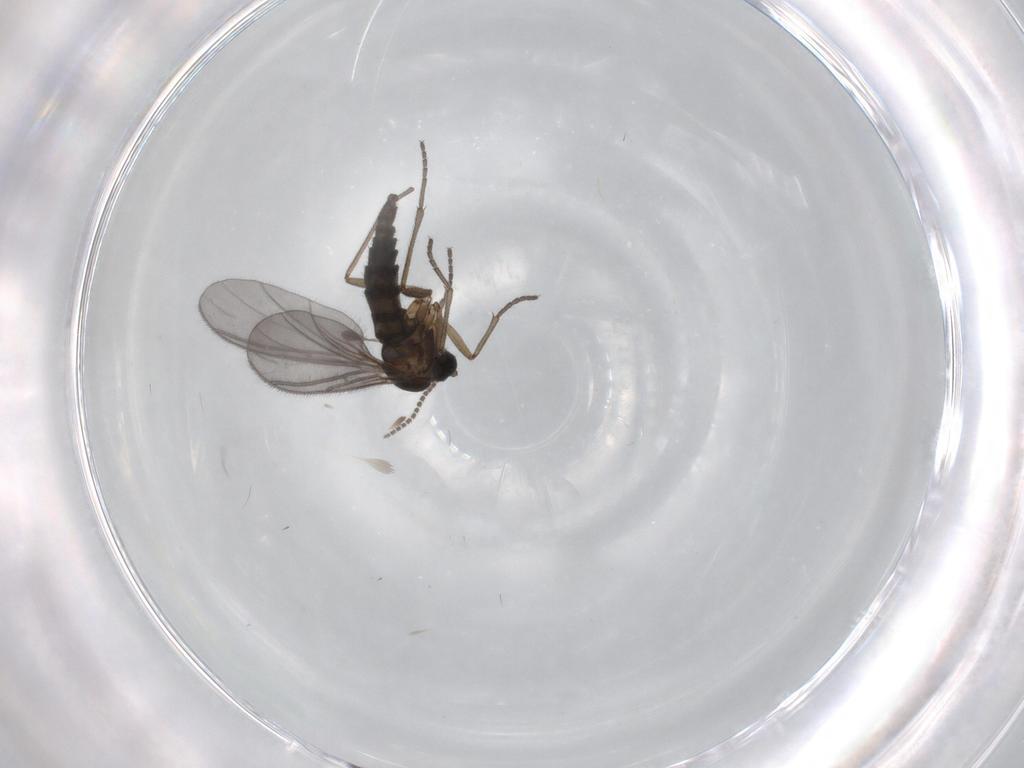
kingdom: Animalia
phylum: Arthropoda
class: Insecta
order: Diptera
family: Sciaridae
